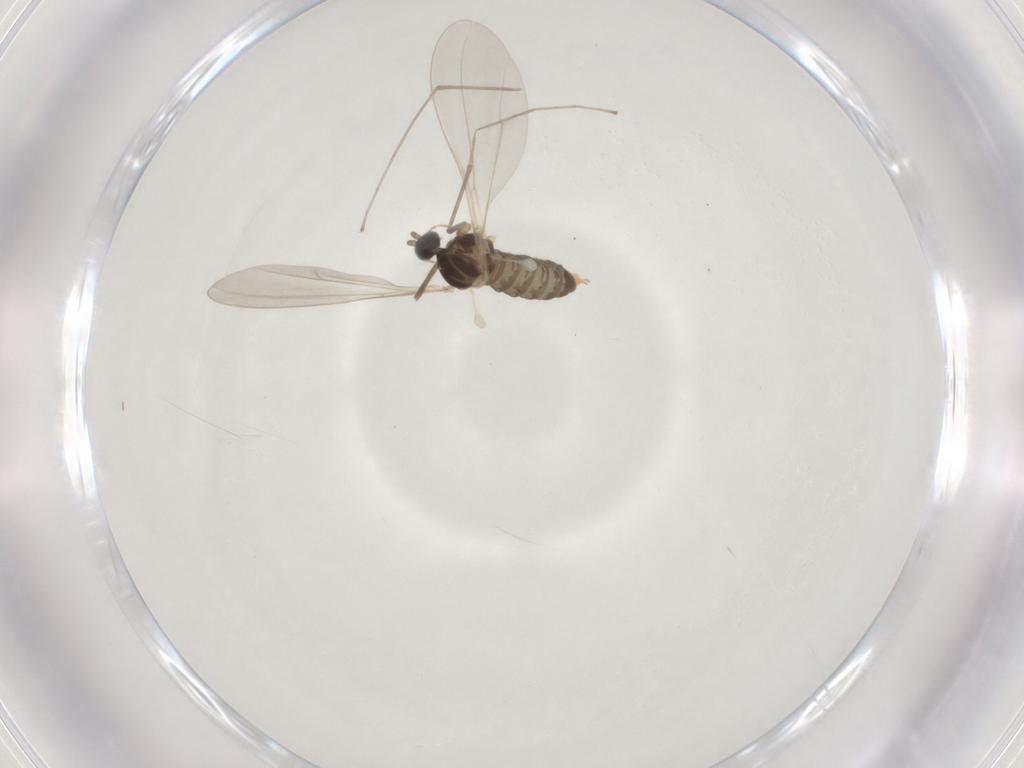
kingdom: Animalia
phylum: Arthropoda
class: Insecta
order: Diptera
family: Cecidomyiidae
